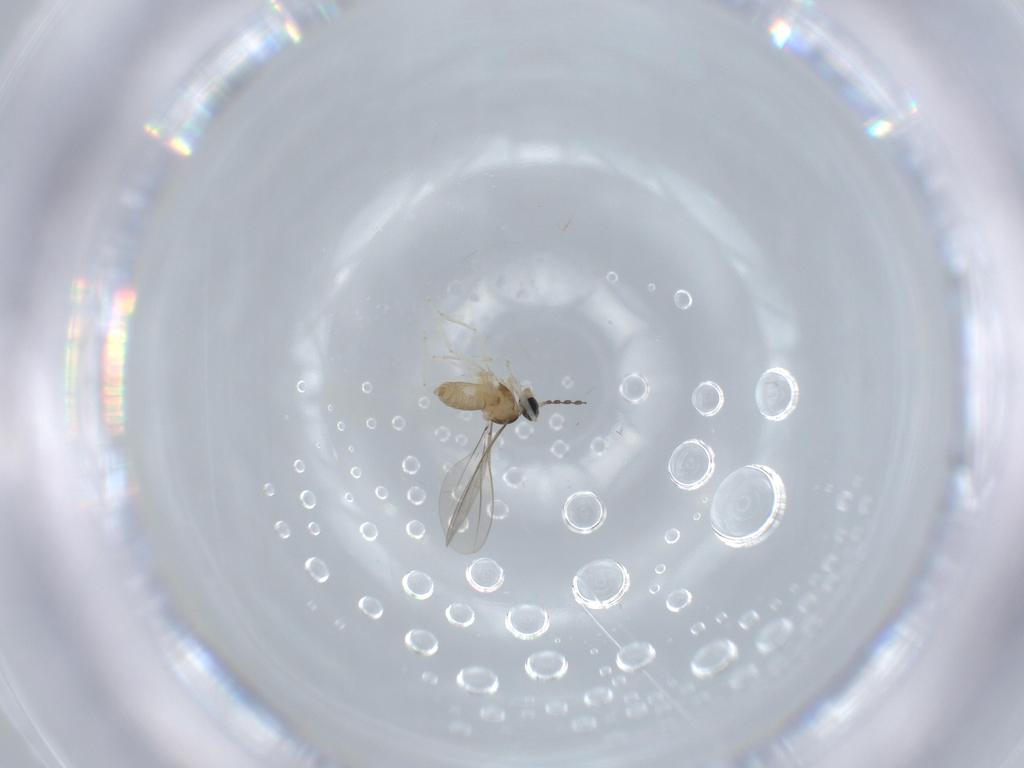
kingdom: Animalia
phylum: Arthropoda
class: Insecta
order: Diptera
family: Cecidomyiidae
